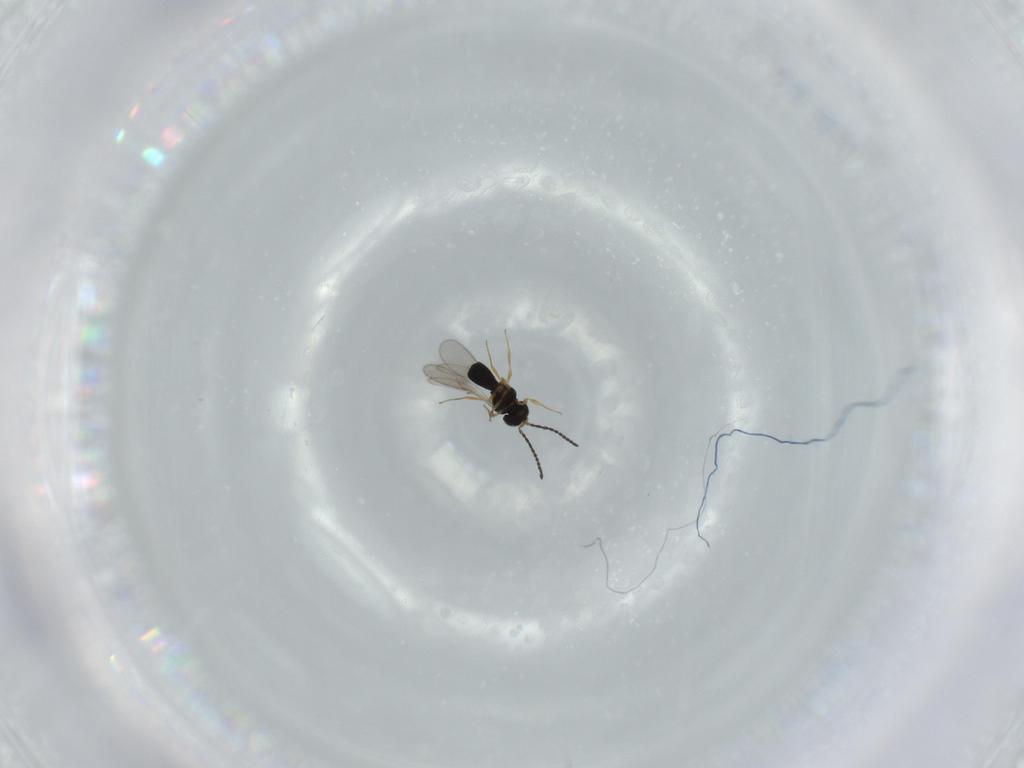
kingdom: Animalia
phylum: Arthropoda
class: Insecta
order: Hymenoptera
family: Scelionidae
